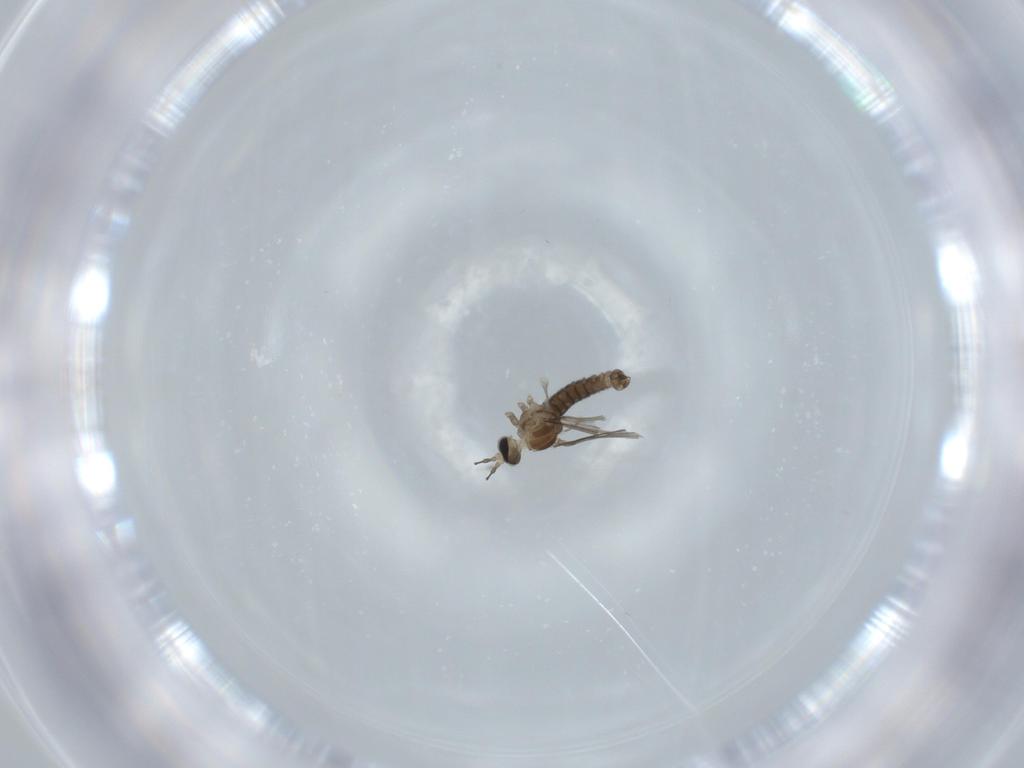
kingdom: Animalia
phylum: Arthropoda
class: Insecta
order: Diptera
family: Cecidomyiidae
